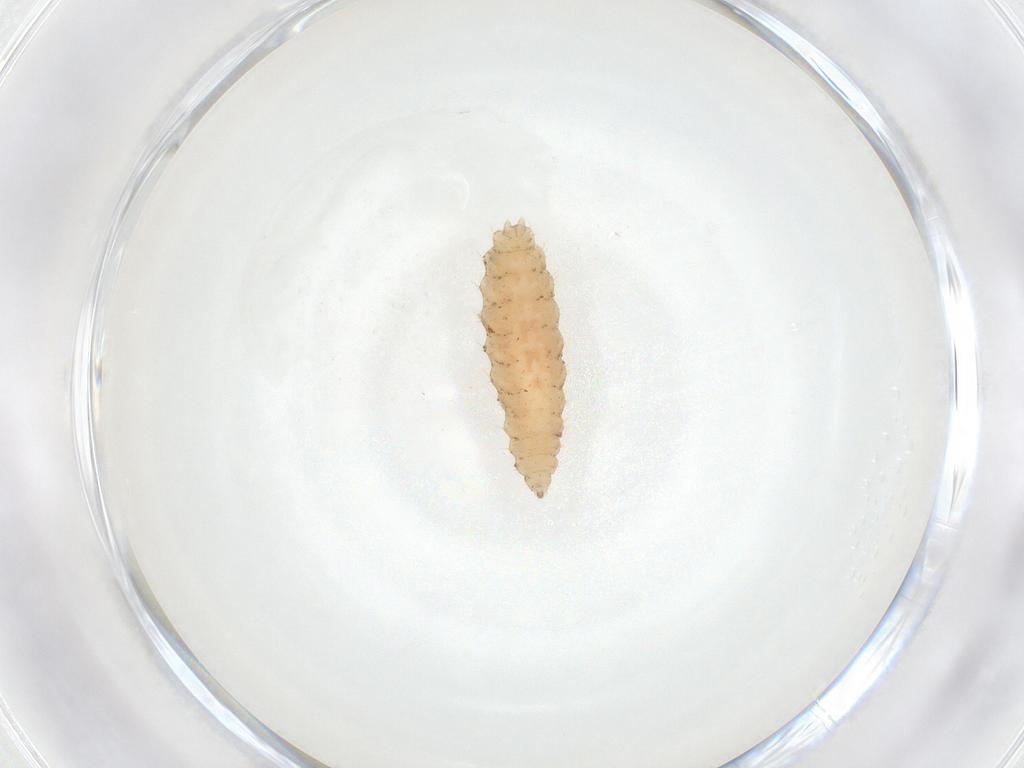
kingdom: Animalia
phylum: Arthropoda
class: Insecta
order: Diptera
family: Cecidomyiidae
